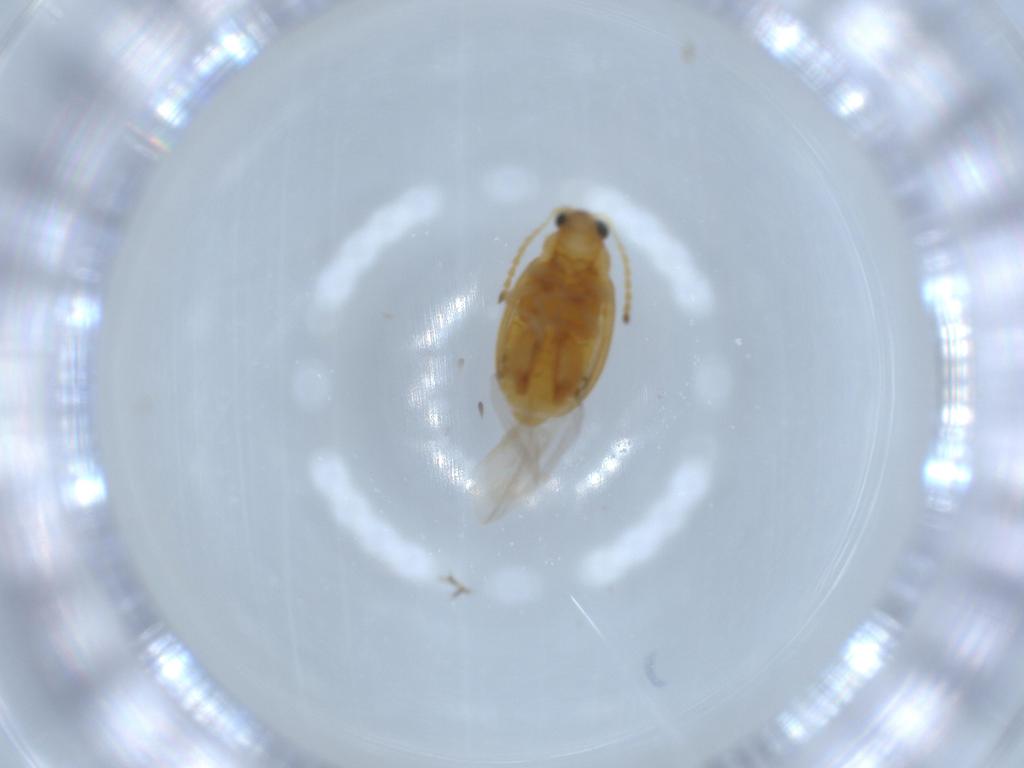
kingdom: Animalia
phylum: Arthropoda
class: Insecta
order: Coleoptera
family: Chrysomelidae
